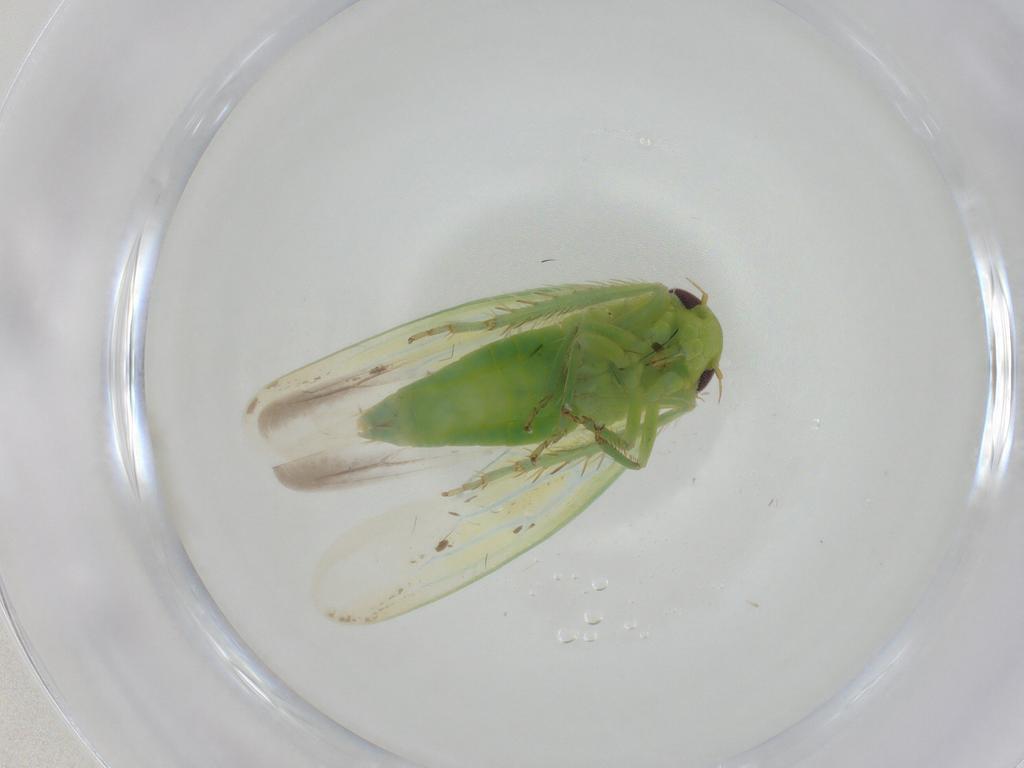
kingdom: Animalia
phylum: Arthropoda
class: Insecta
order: Hemiptera
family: Cicadellidae
